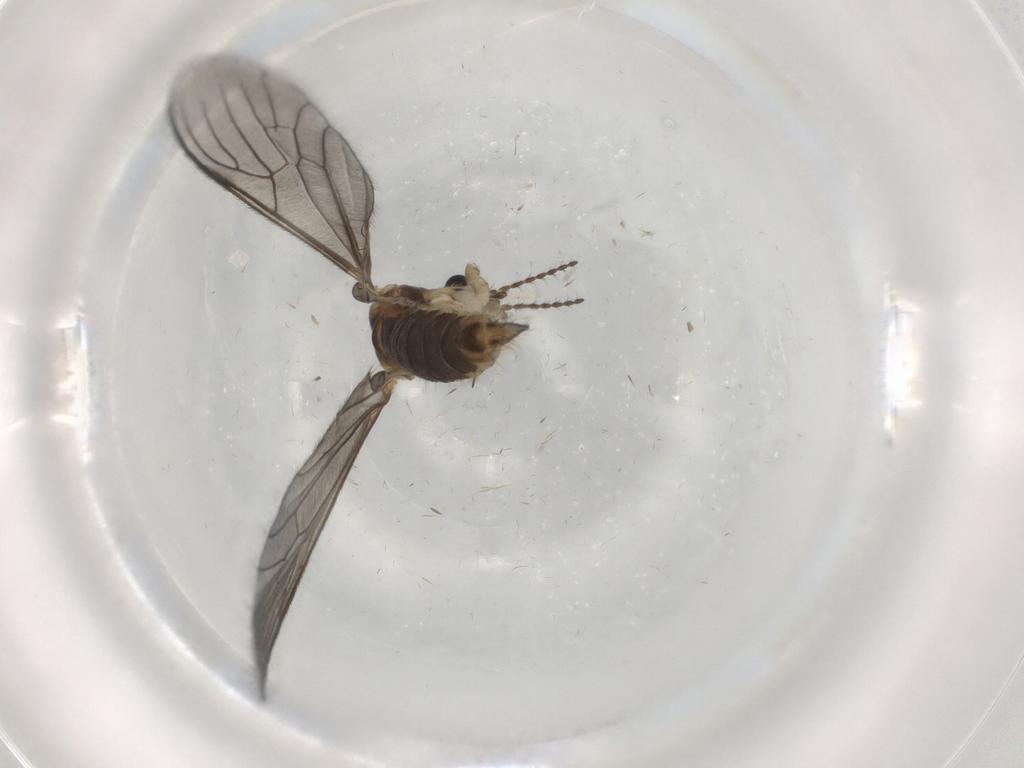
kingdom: Animalia
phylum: Arthropoda
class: Insecta
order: Diptera
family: Limoniidae
